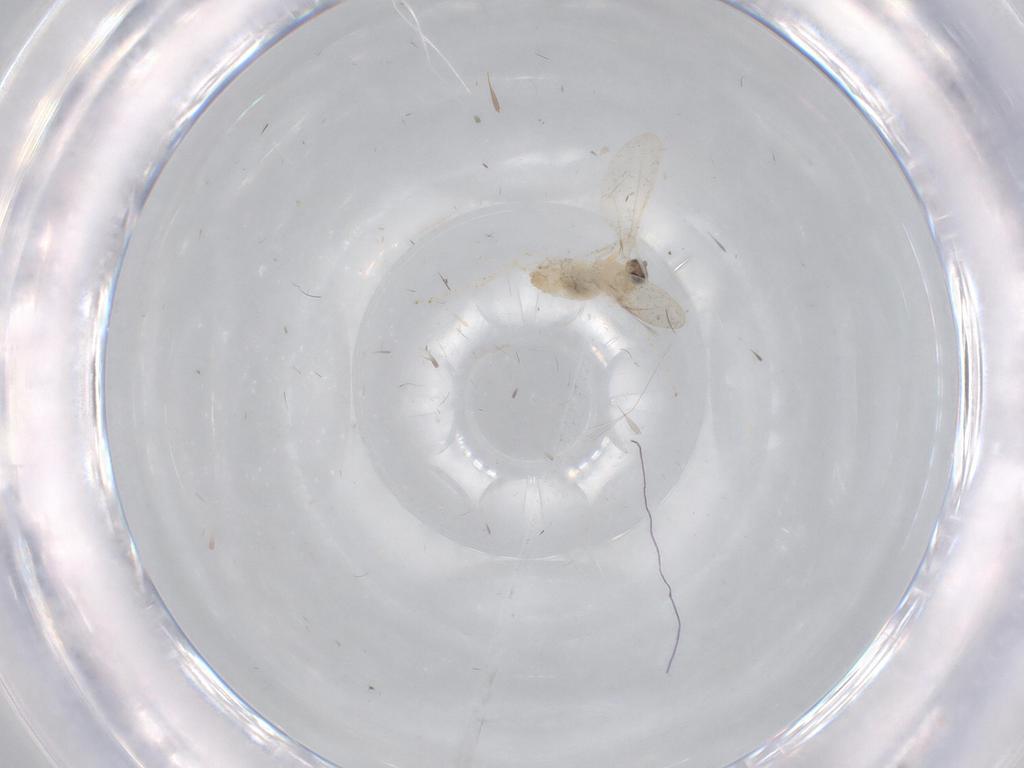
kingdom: Animalia
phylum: Arthropoda
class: Insecta
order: Diptera
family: Cecidomyiidae
